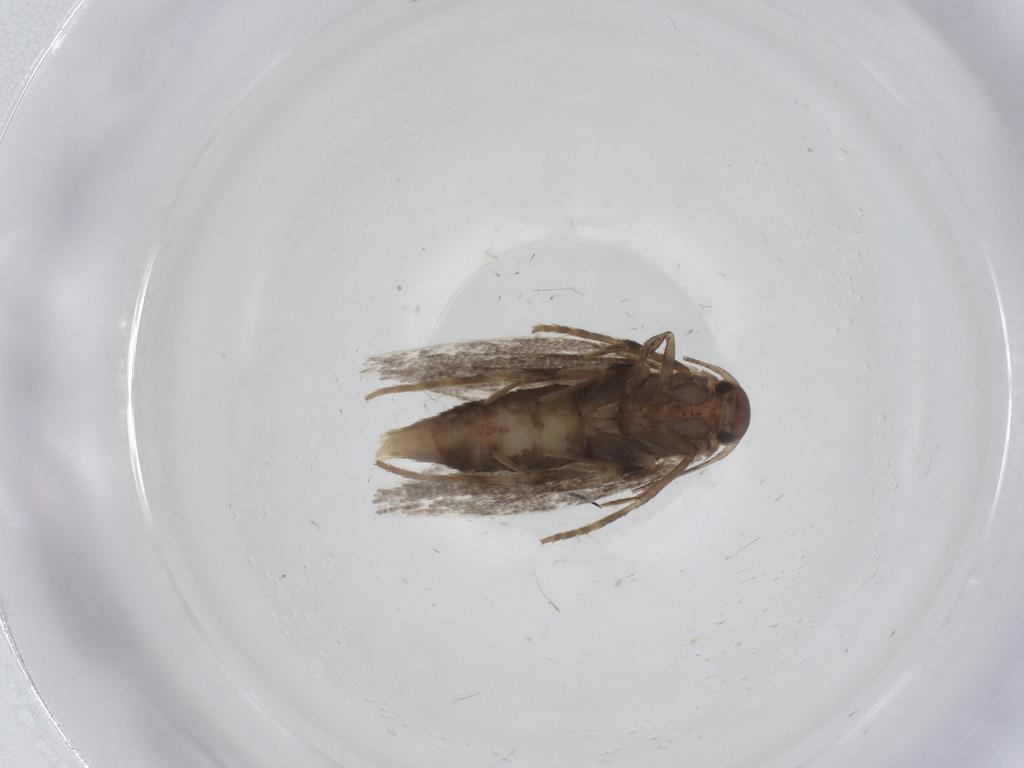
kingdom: Animalia
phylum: Arthropoda
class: Insecta
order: Lepidoptera
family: Elachistidae
